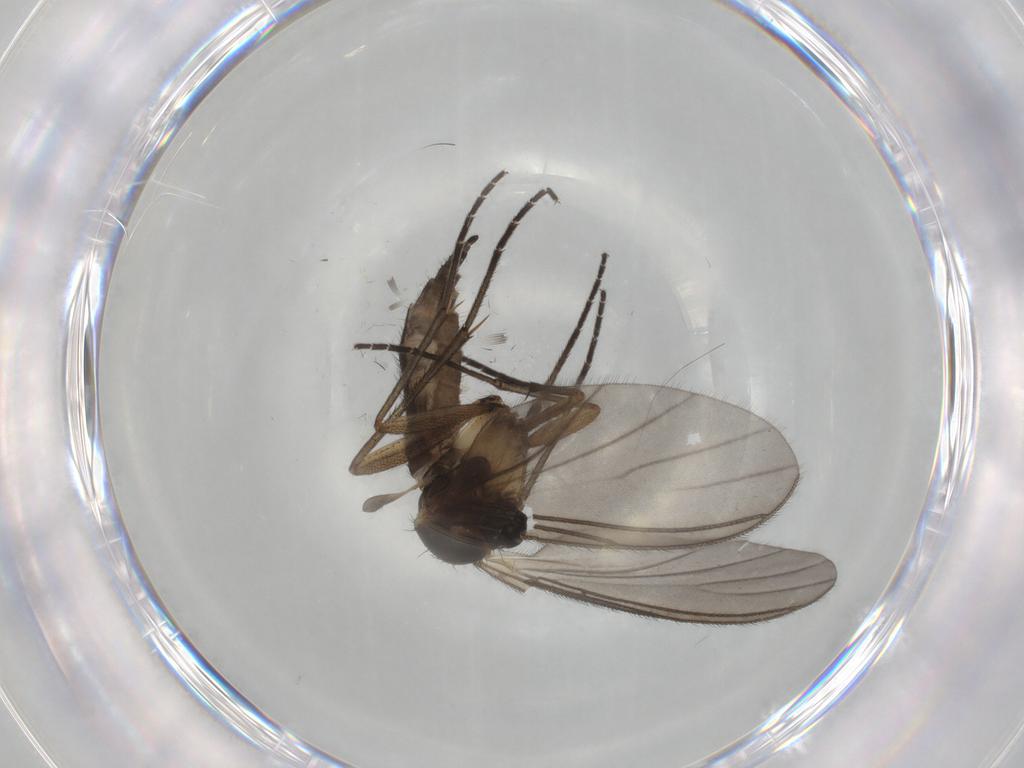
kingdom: Animalia
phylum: Arthropoda
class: Insecta
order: Diptera
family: Sciaridae
